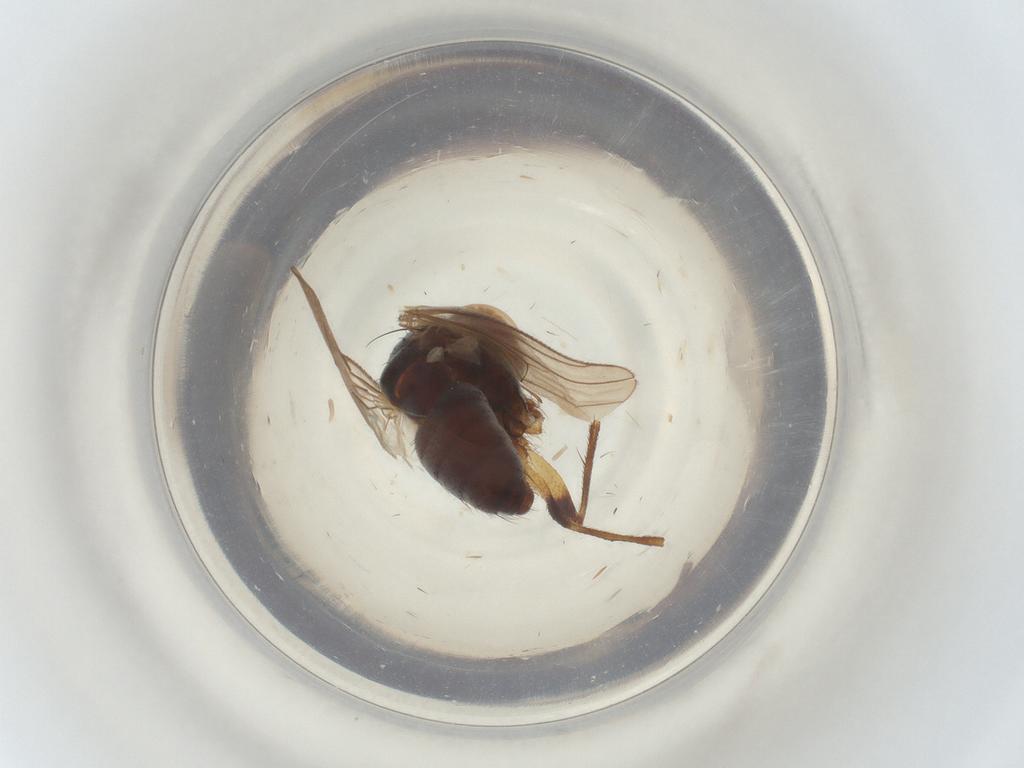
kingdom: Animalia
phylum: Arthropoda
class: Insecta
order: Diptera
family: Muscidae
